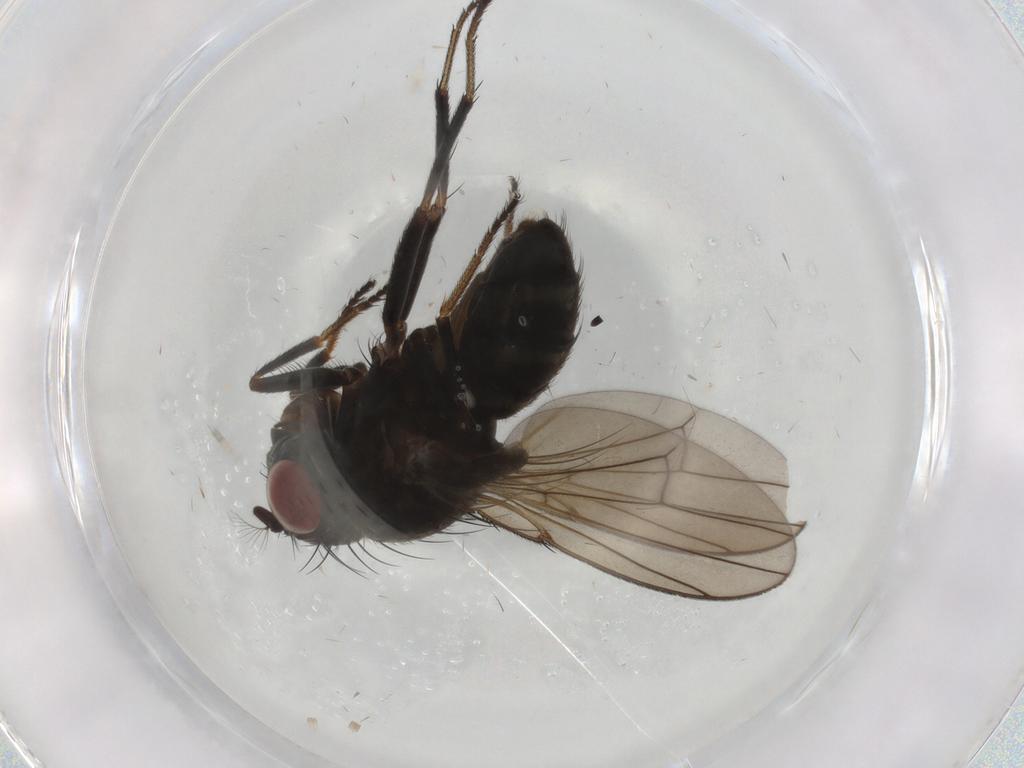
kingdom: Animalia
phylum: Arthropoda
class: Insecta
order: Diptera
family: Ephydridae
